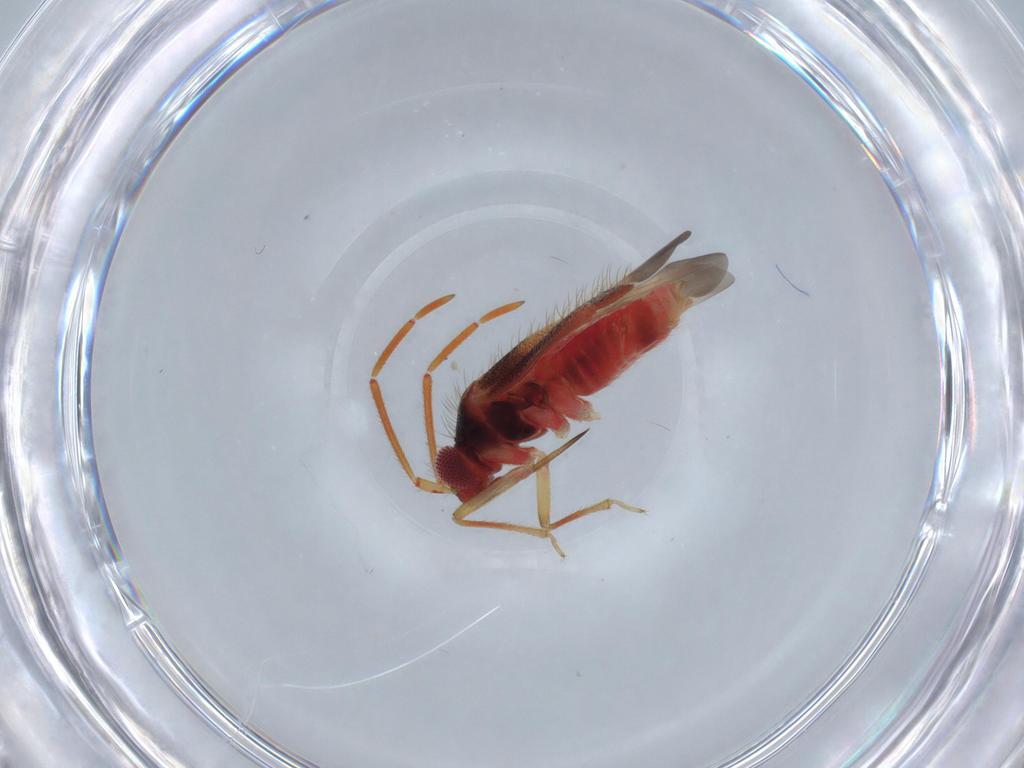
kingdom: Animalia
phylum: Arthropoda
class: Insecta
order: Hemiptera
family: Miridae
